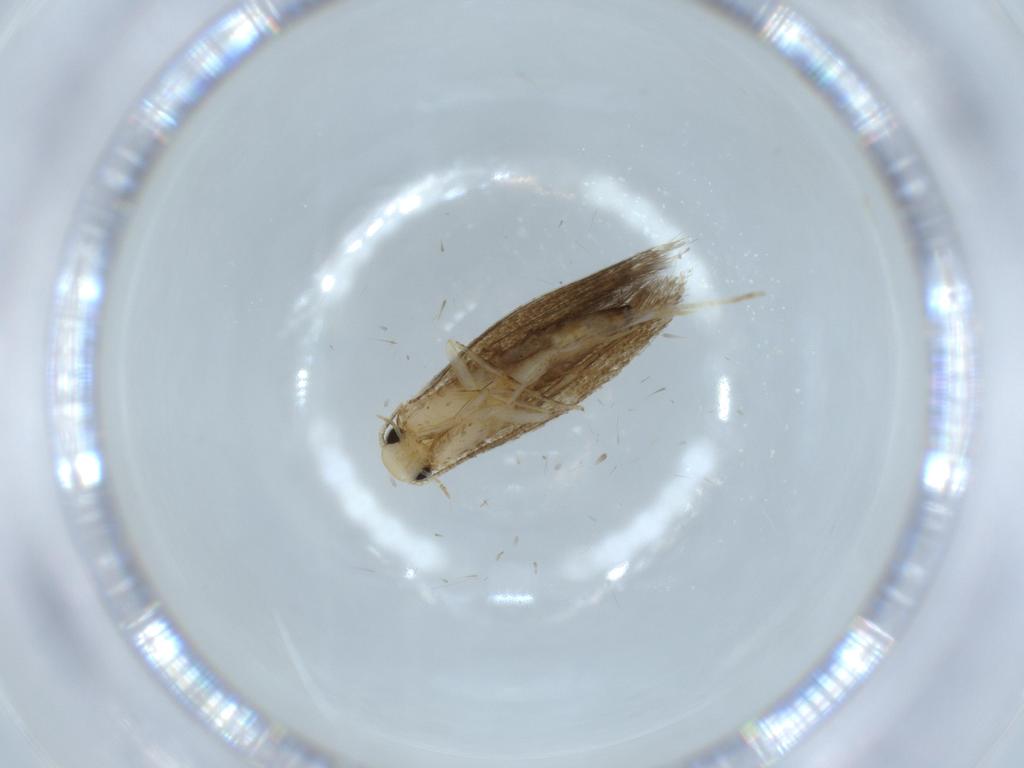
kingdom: Animalia
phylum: Arthropoda
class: Insecta
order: Lepidoptera
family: Tineidae
